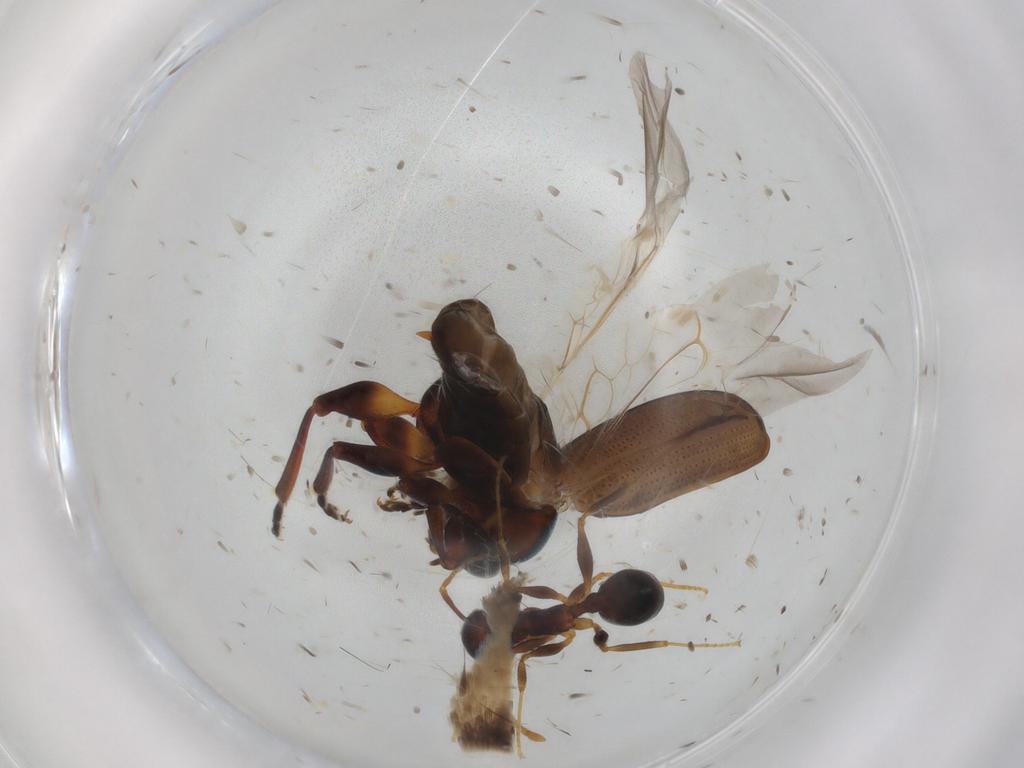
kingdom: Animalia
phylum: Arthropoda
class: Insecta
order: Coleoptera
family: Chrysomelidae
